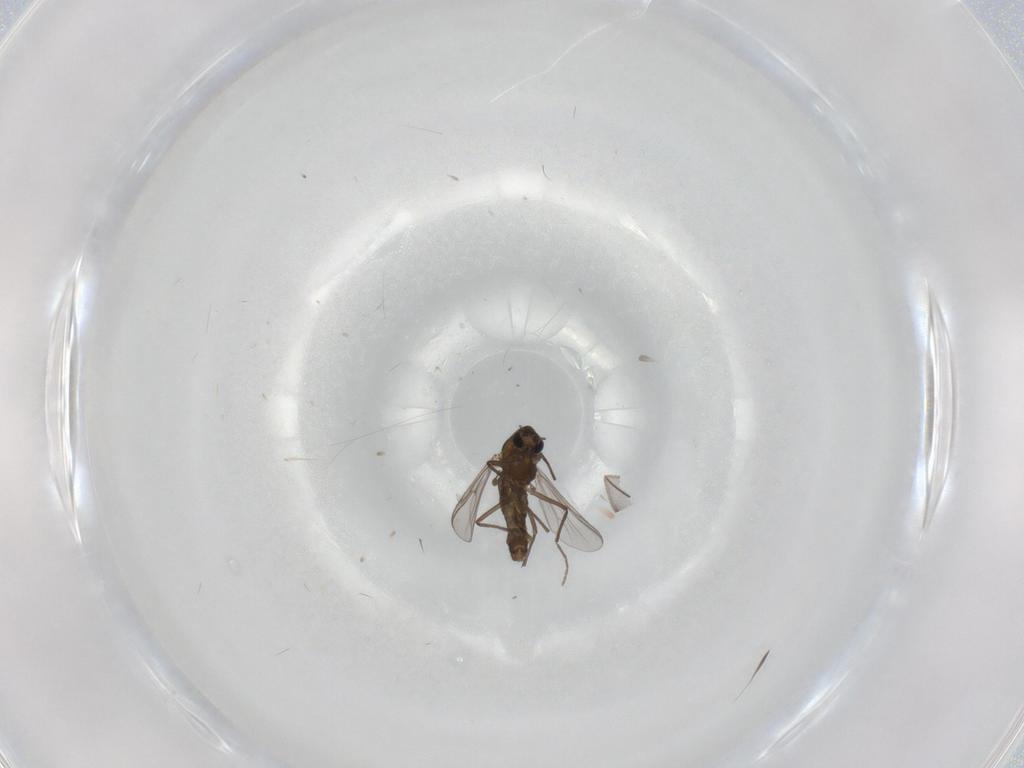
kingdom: Animalia
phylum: Arthropoda
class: Insecta
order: Diptera
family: Chironomidae
